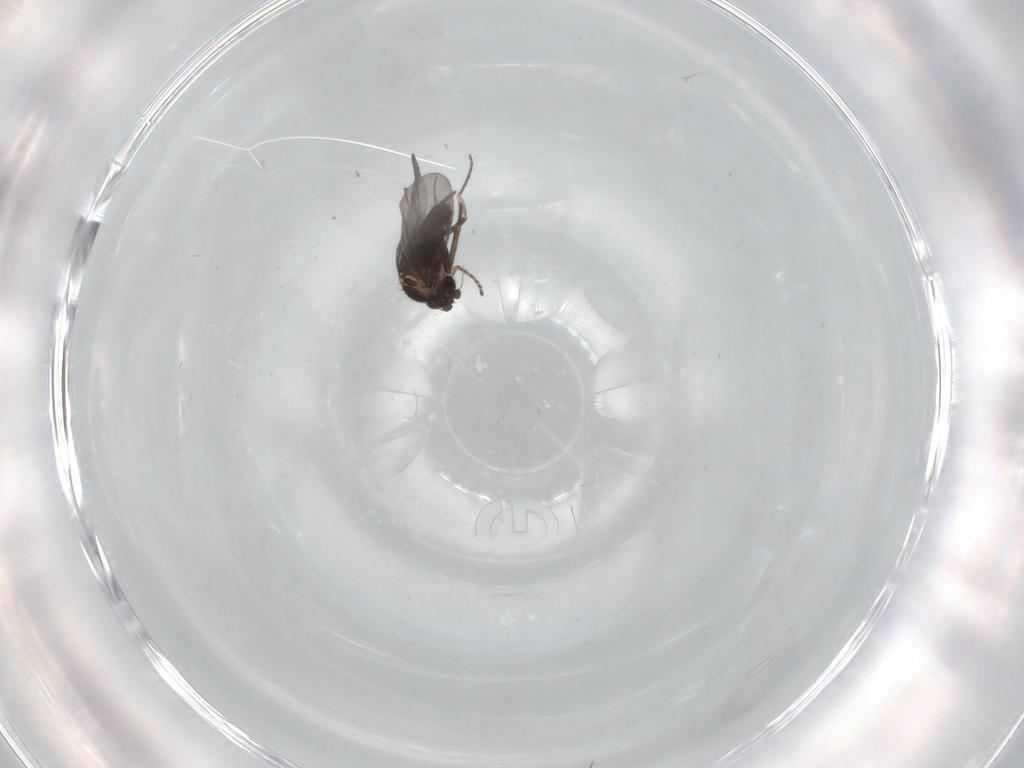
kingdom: Animalia
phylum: Arthropoda
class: Insecta
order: Diptera
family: Phoridae
